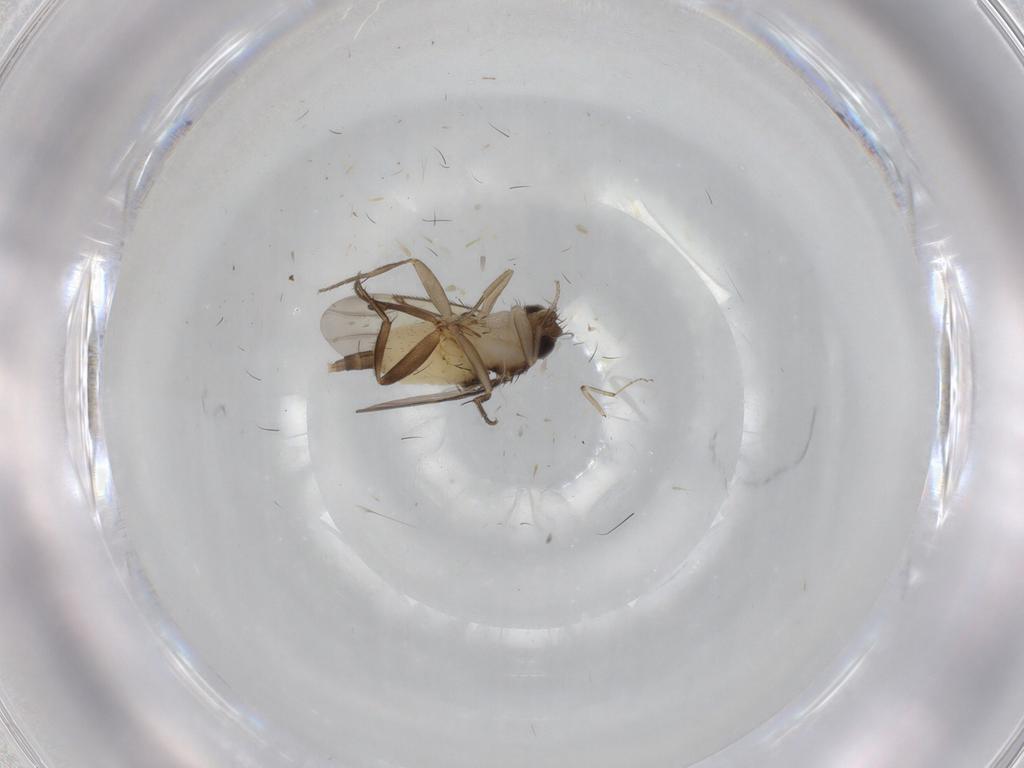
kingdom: Animalia
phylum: Arthropoda
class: Insecta
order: Diptera
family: Phoridae
